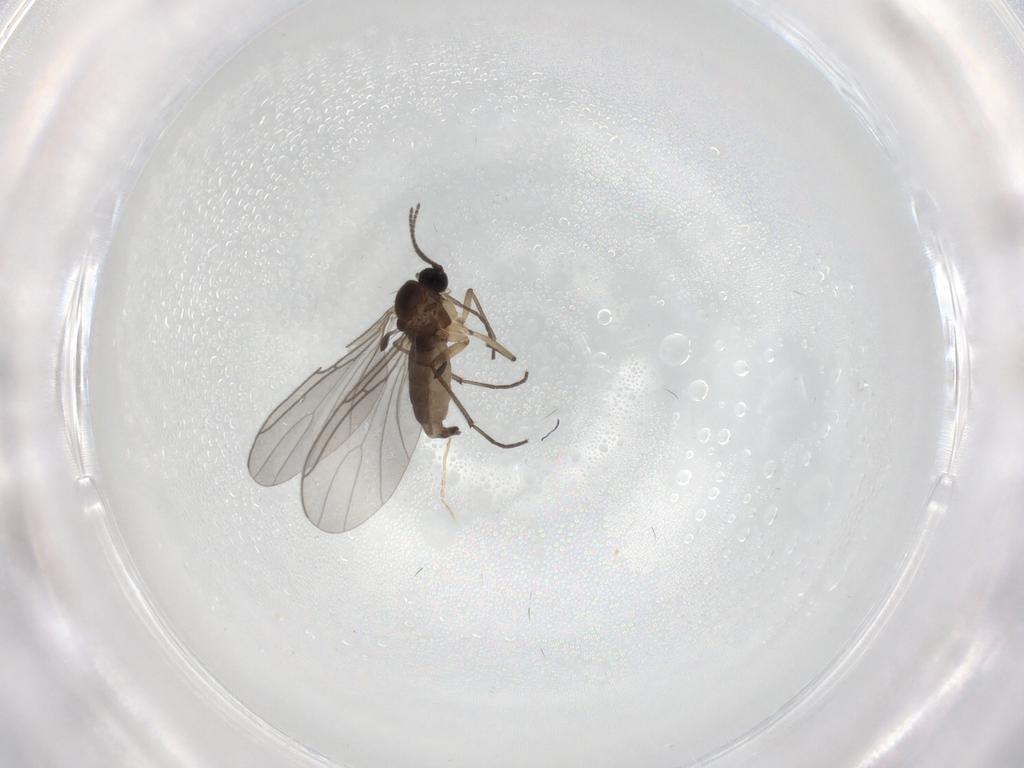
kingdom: Animalia
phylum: Arthropoda
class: Insecta
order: Diptera
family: Sciaridae
